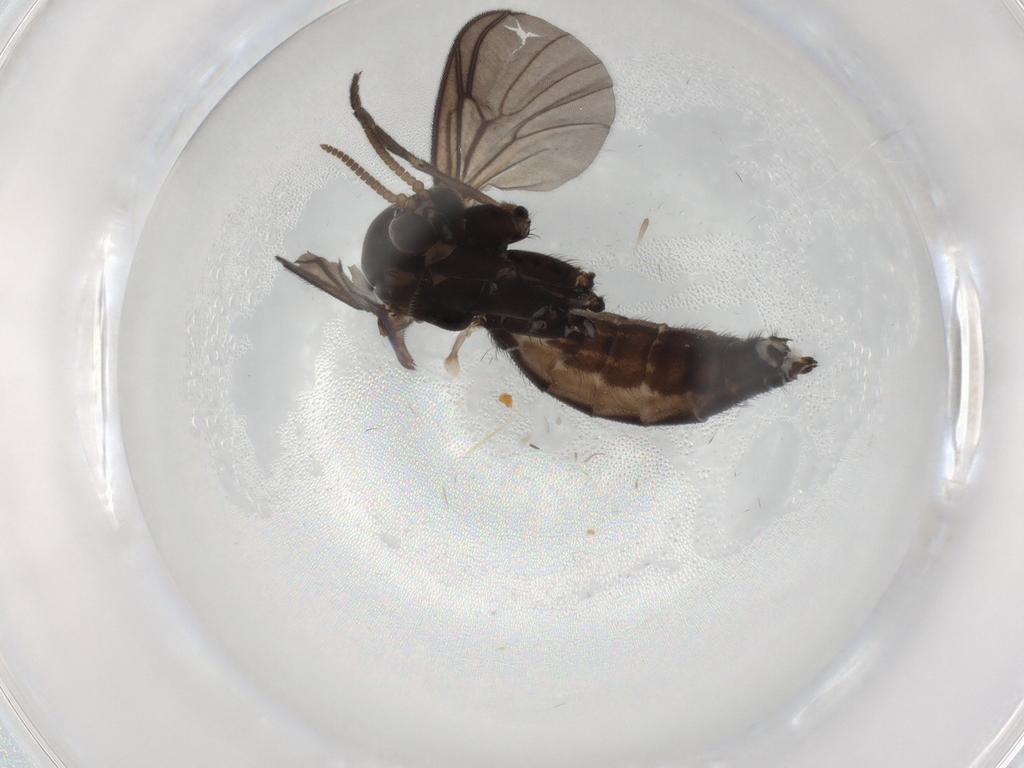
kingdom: Animalia
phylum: Arthropoda
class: Insecta
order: Diptera
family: Mycetophilidae
